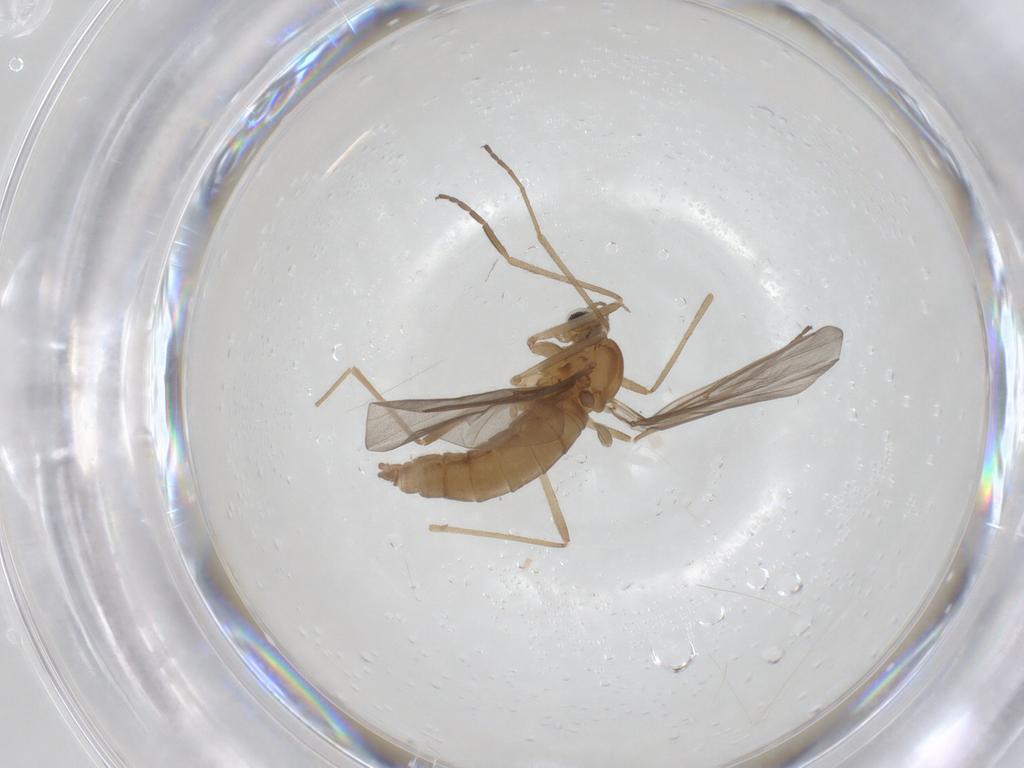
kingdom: Animalia
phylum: Arthropoda
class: Insecta
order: Diptera
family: Cecidomyiidae
